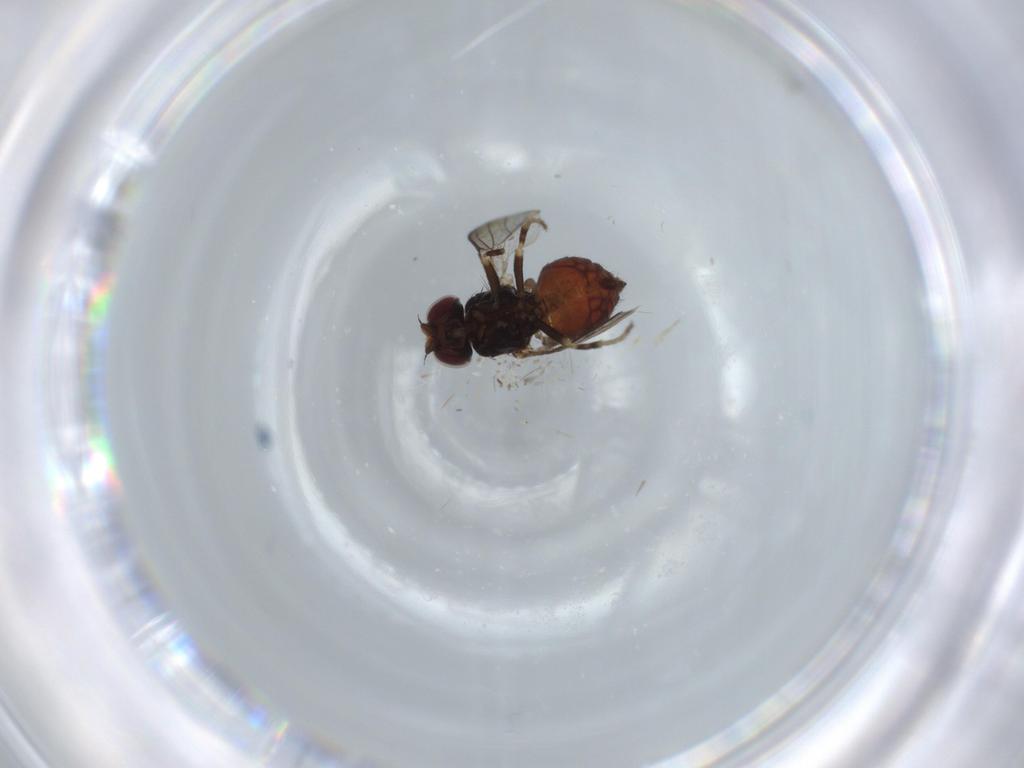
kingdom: Animalia
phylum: Arthropoda
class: Insecta
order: Diptera
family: Chloropidae
